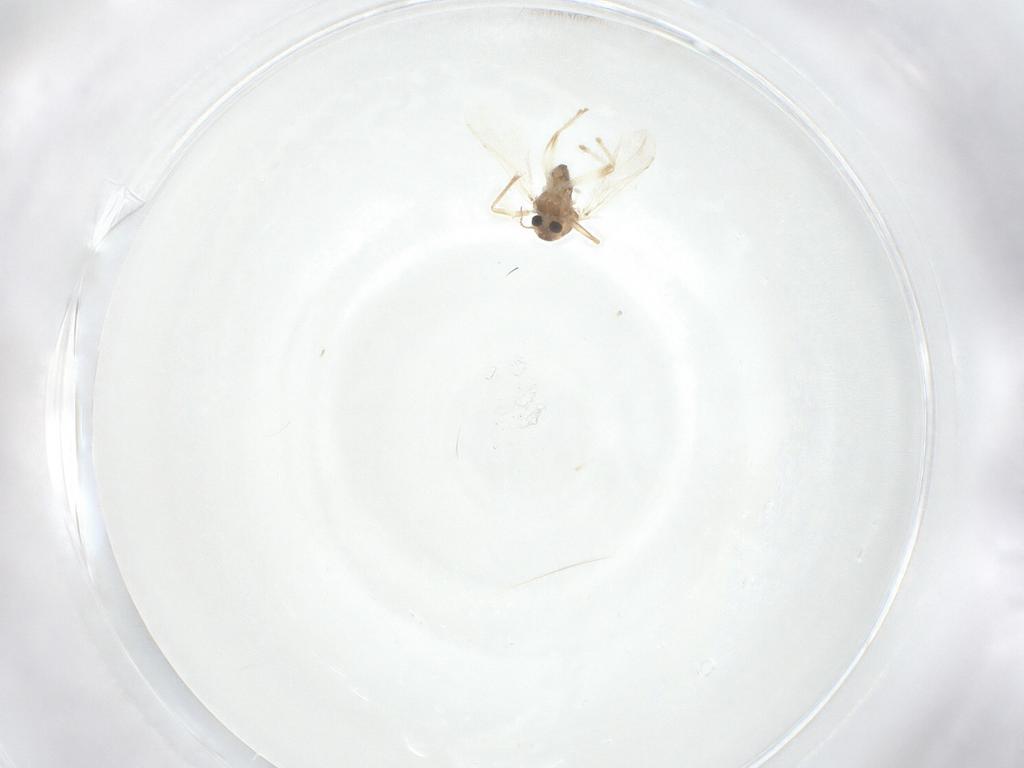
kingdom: Animalia
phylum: Arthropoda
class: Insecta
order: Diptera
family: Chironomidae
